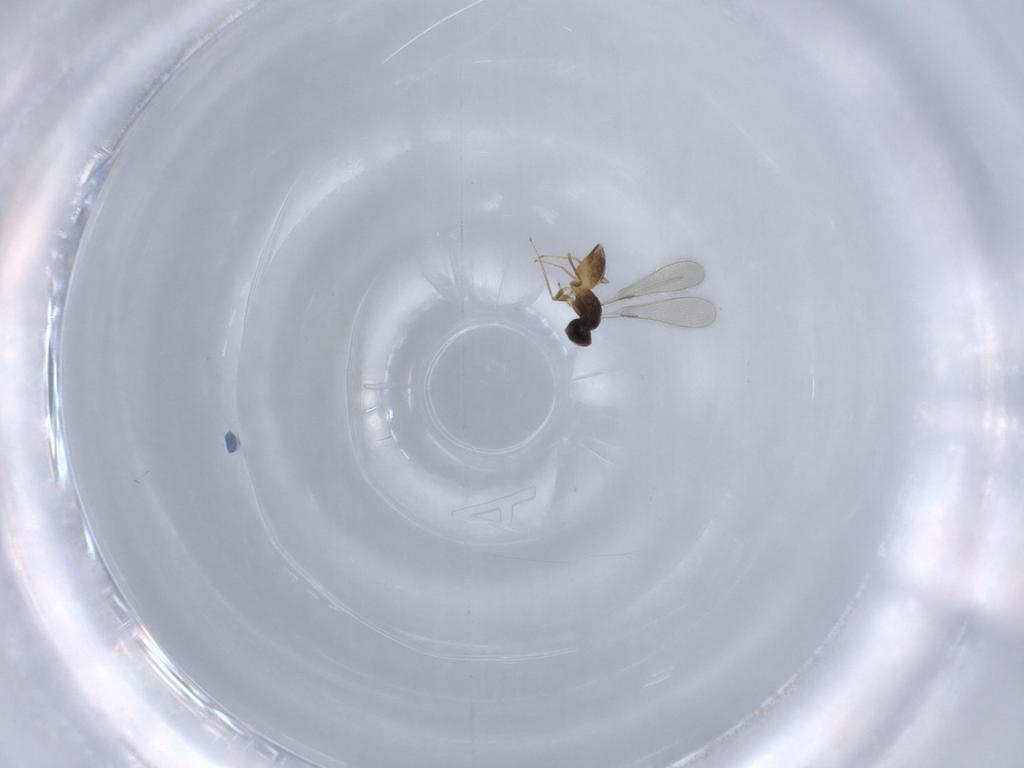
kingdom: Animalia
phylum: Arthropoda
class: Insecta
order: Hymenoptera
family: Mymaridae
